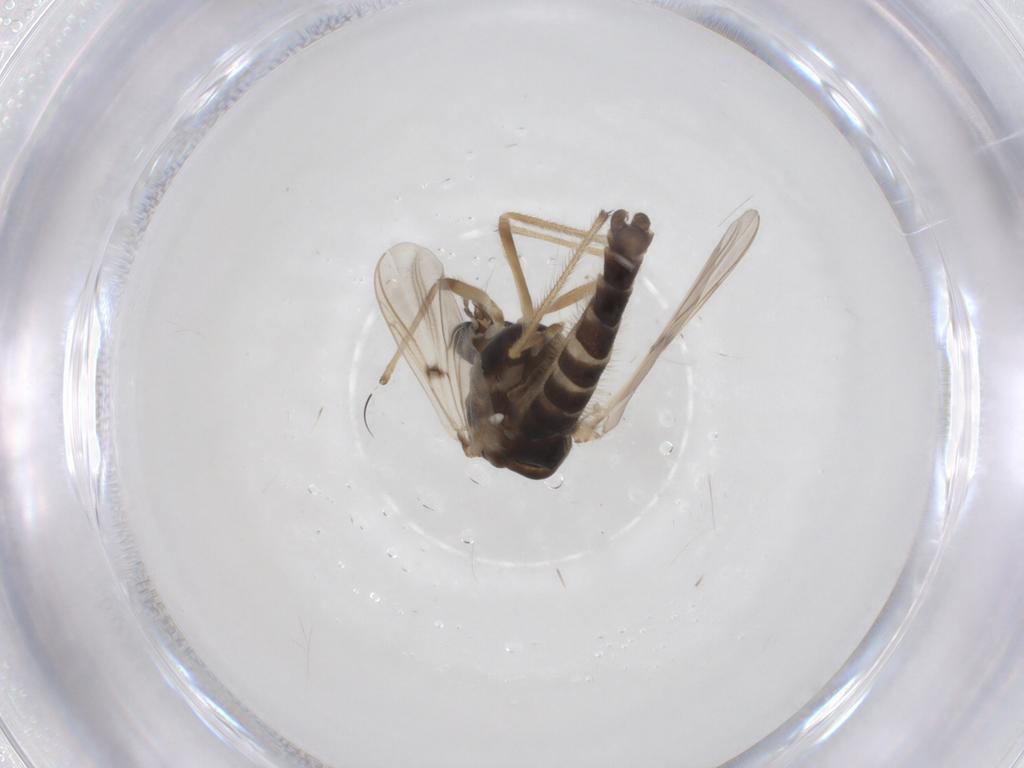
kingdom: Animalia
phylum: Arthropoda
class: Insecta
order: Diptera
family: Chironomidae
